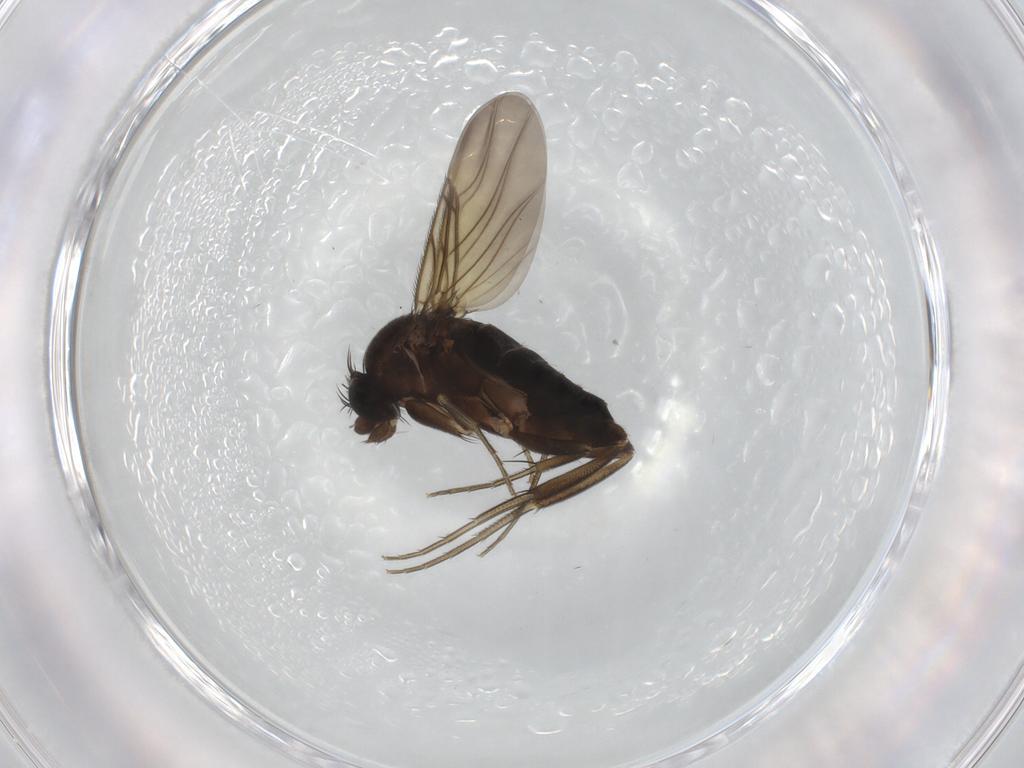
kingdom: Animalia
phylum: Arthropoda
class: Insecta
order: Diptera
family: Phoridae
